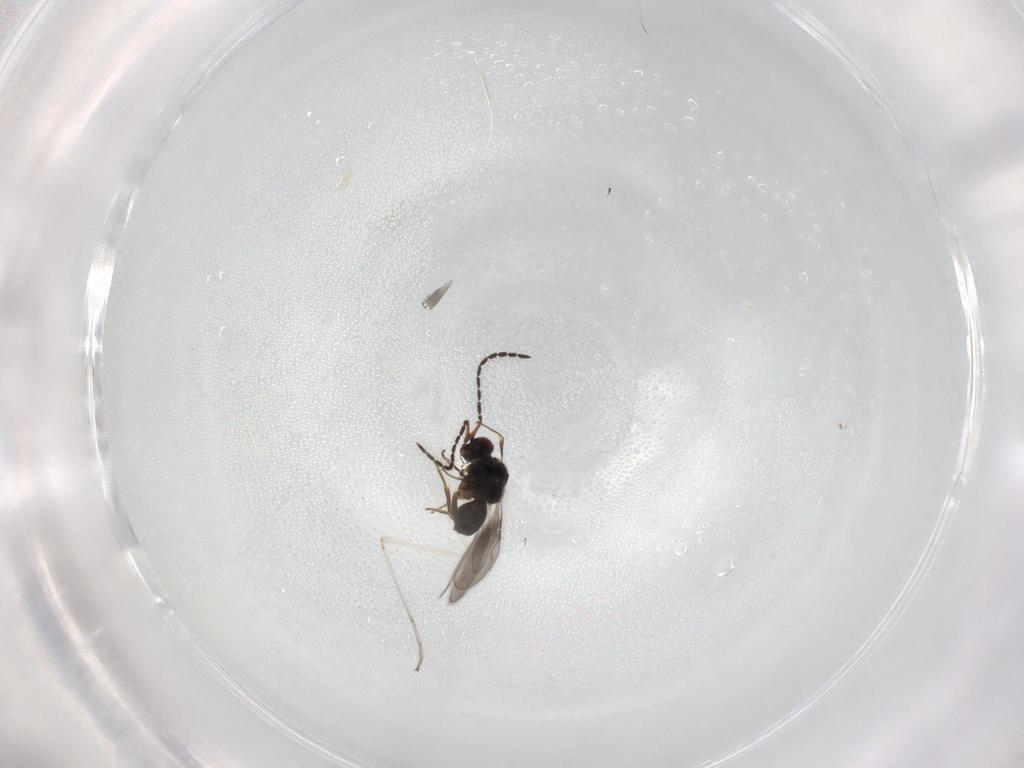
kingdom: Animalia
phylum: Arthropoda
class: Insecta
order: Hymenoptera
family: Ceraphronidae
